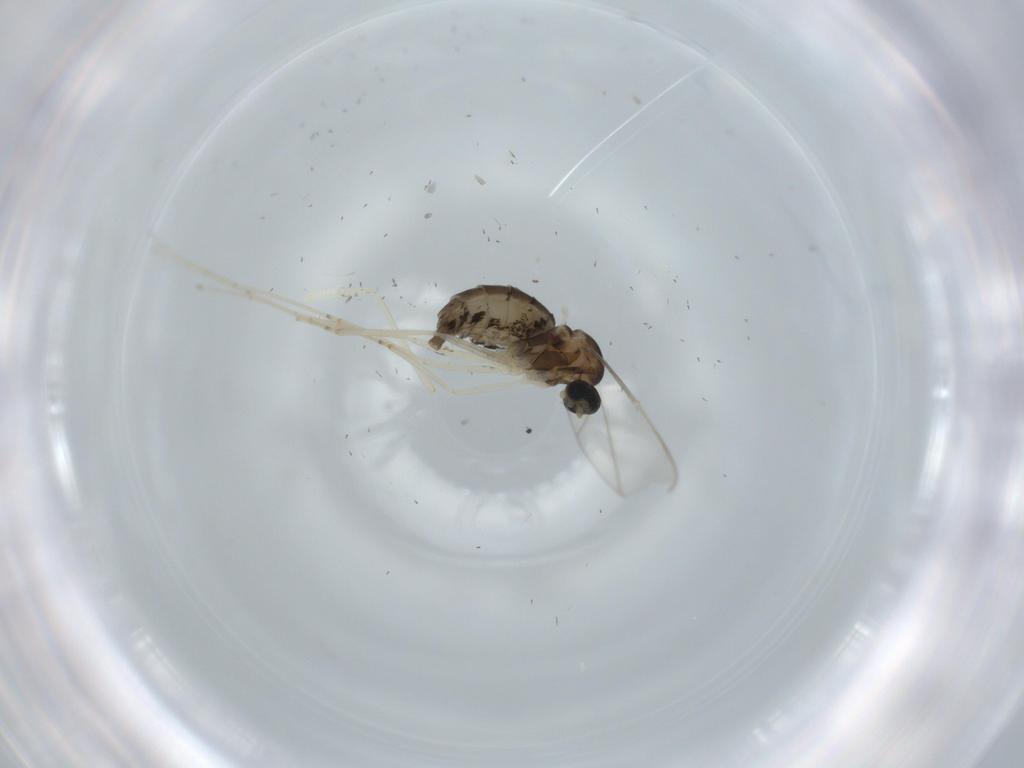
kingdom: Animalia
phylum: Arthropoda
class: Insecta
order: Diptera
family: Cecidomyiidae
